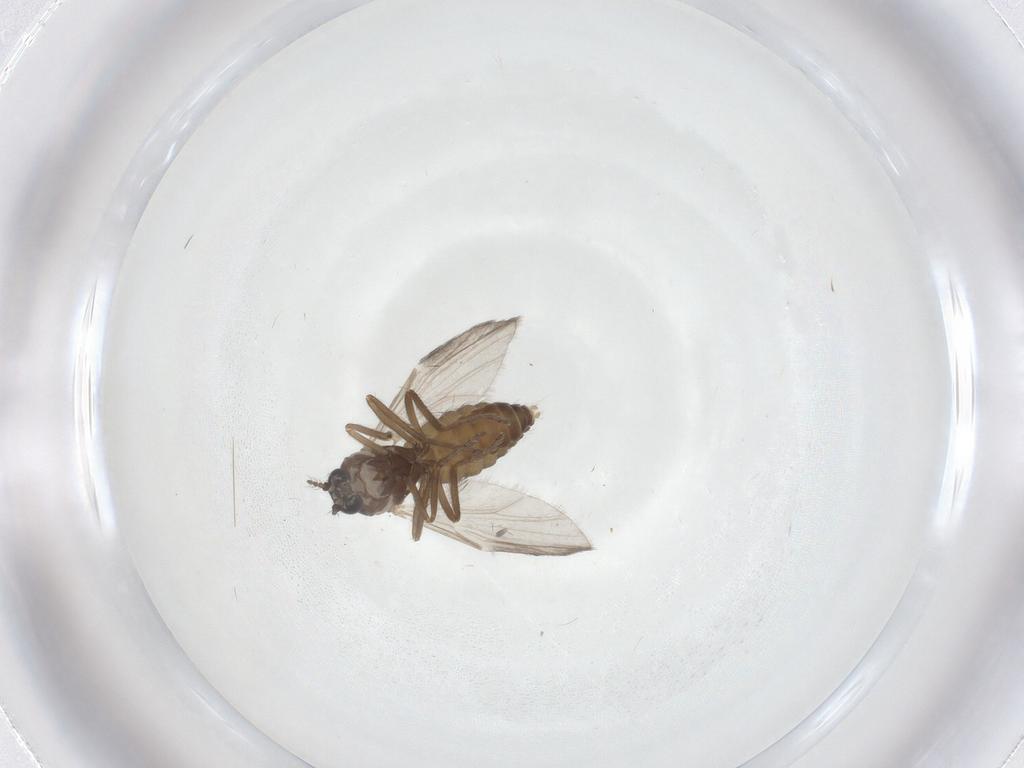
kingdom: Animalia
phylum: Arthropoda
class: Insecta
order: Diptera
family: Ceratopogonidae
